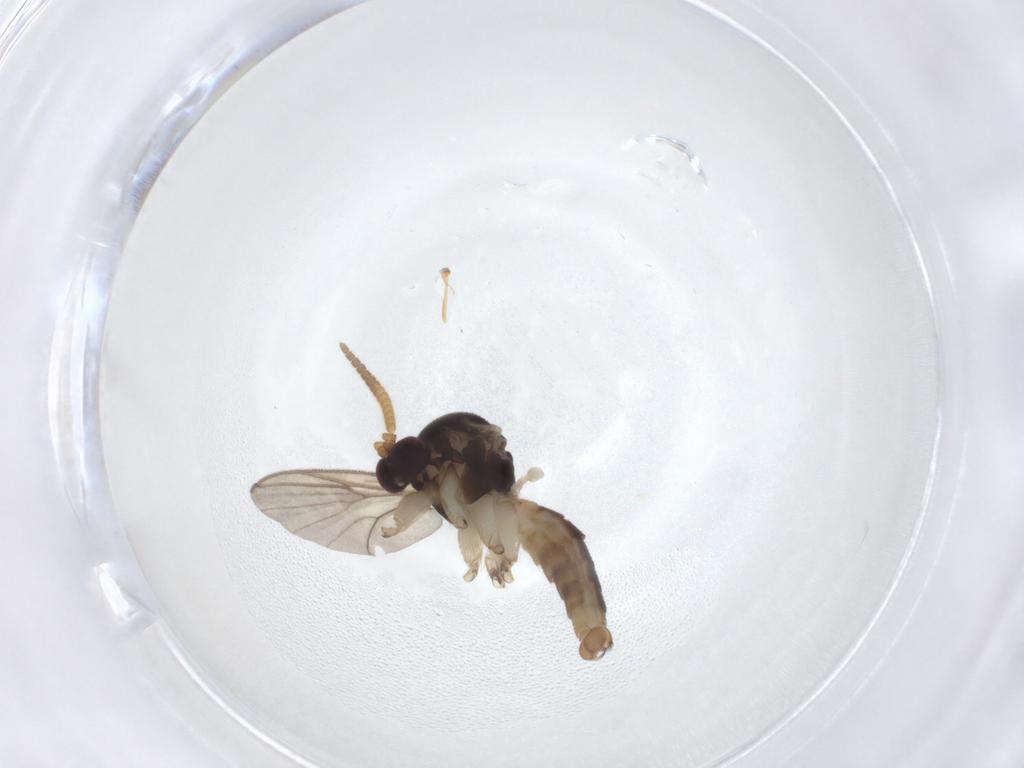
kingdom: Animalia
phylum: Arthropoda
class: Insecta
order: Diptera
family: Mycetophilidae
